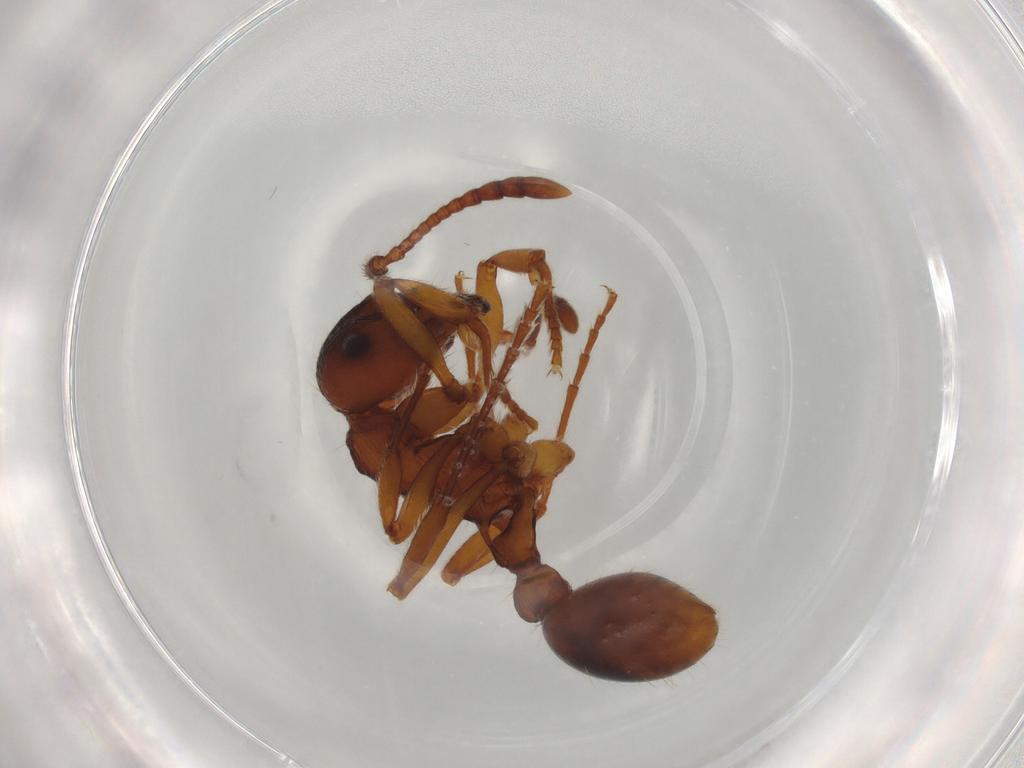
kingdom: Animalia
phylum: Arthropoda
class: Insecta
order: Hymenoptera
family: Formicidae
